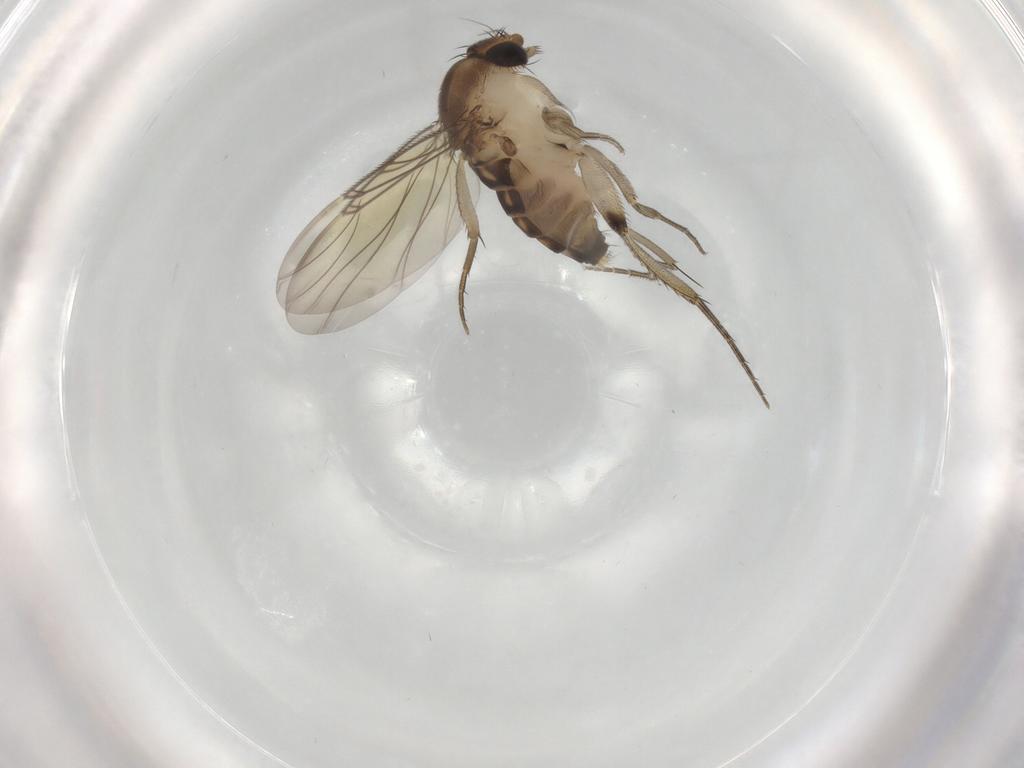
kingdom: Animalia
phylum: Arthropoda
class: Insecta
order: Diptera
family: Phoridae
